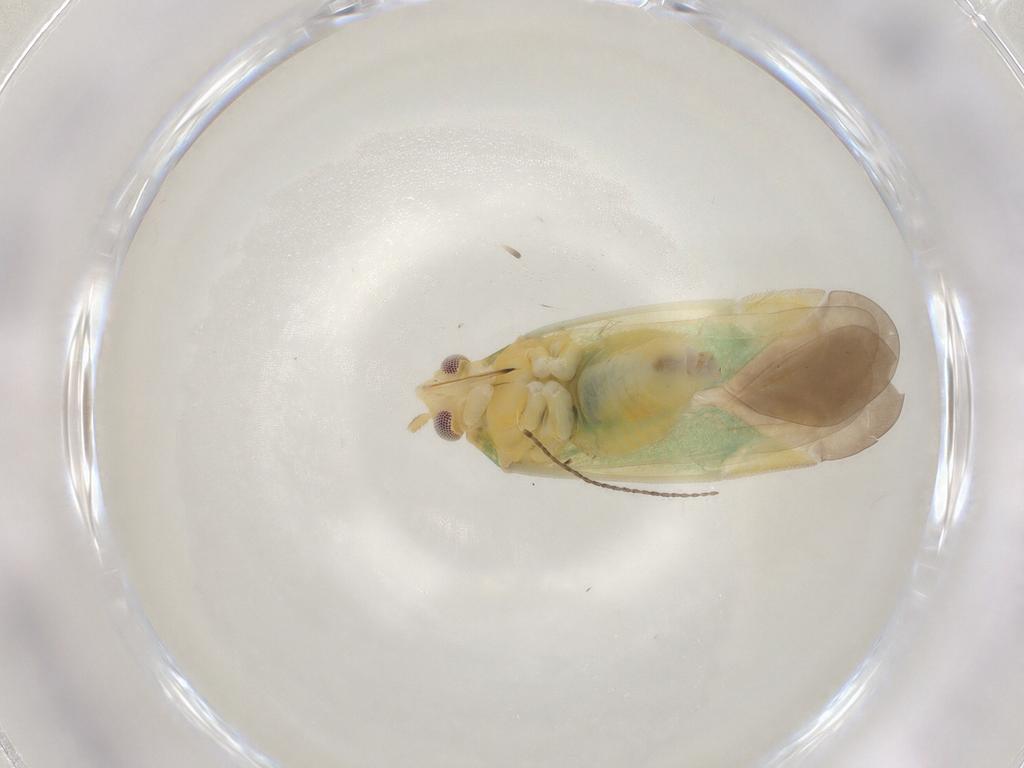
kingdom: Animalia
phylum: Arthropoda
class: Insecta
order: Hemiptera
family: Miridae
